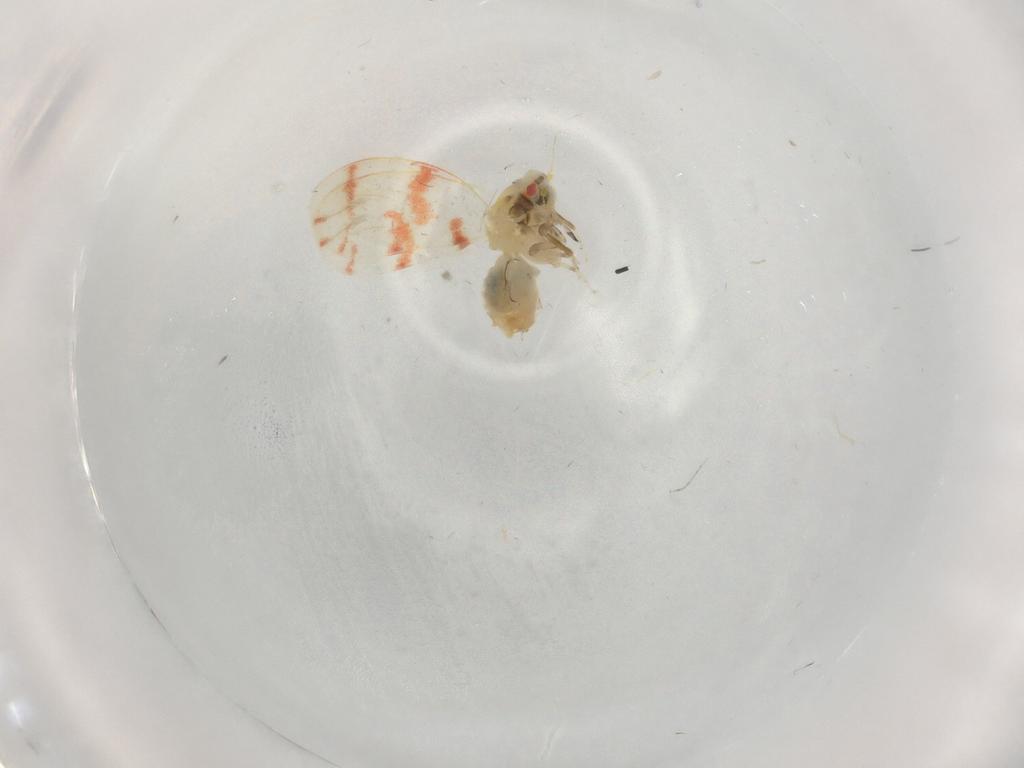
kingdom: Animalia
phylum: Arthropoda
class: Insecta
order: Hemiptera
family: Aleyrodidae
